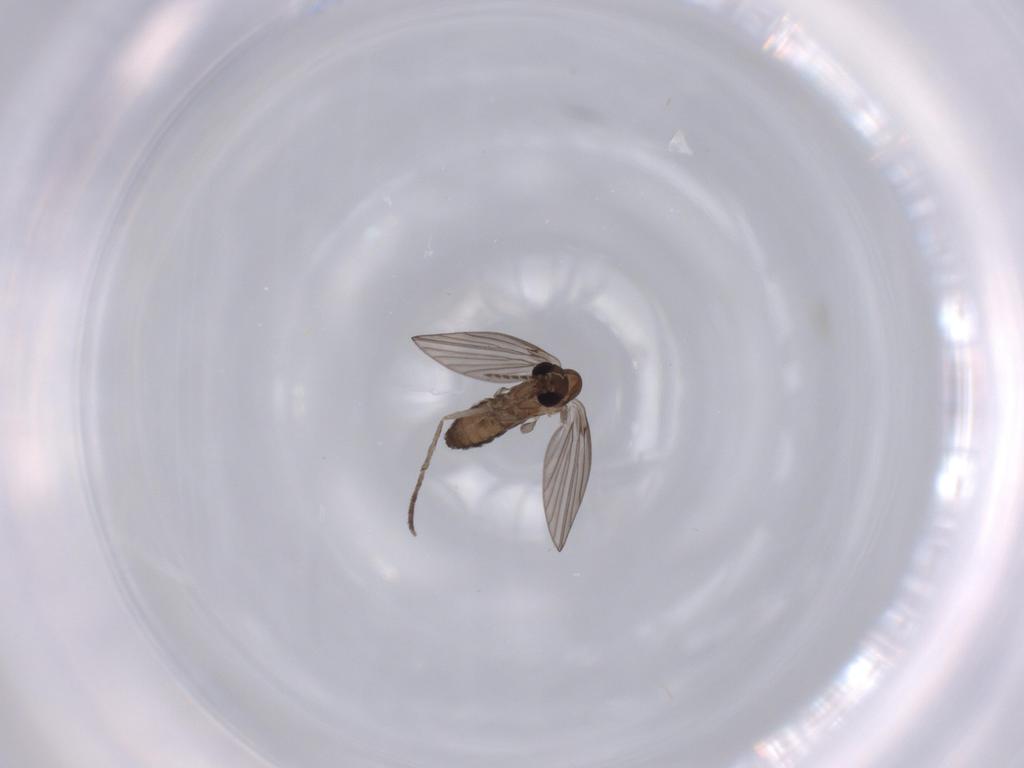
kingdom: Animalia
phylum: Arthropoda
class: Insecta
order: Diptera
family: Psychodidae
